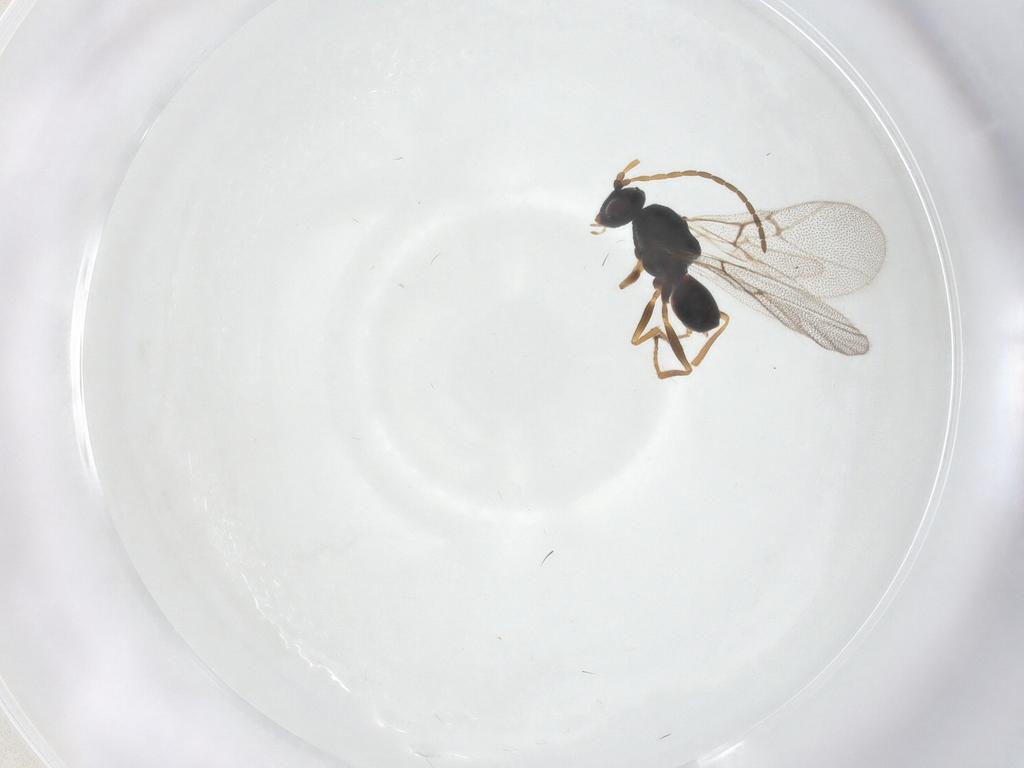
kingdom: Animalia
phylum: Arthropoda
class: Insecta
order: Hymenoptera
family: Cynipidae
